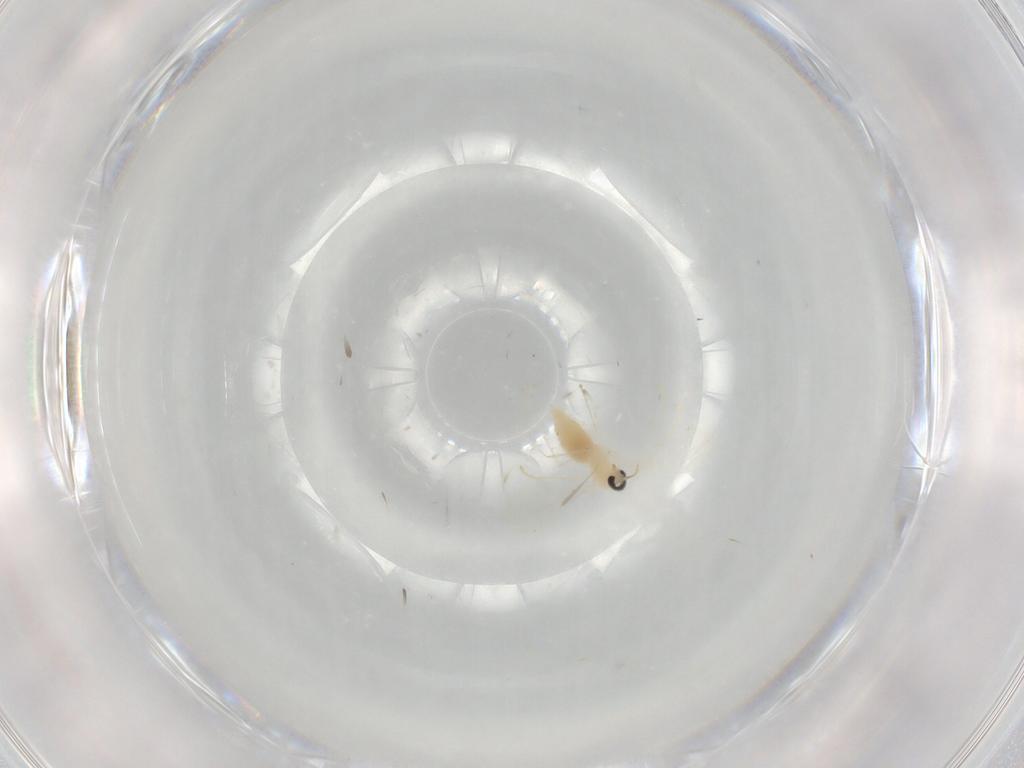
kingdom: Animalia
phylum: Arthropoda
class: Insecta
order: Diptera
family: Cecidomyiidae
